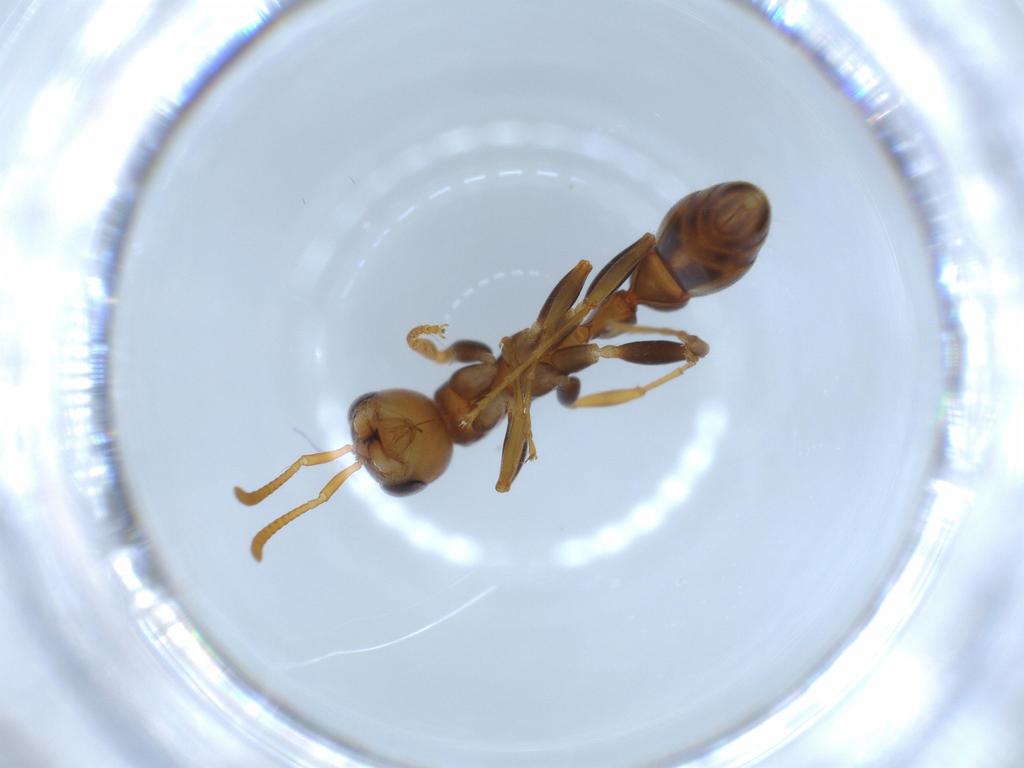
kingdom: Animalia
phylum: Arthropoda
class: Insecta
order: Hymenoptera
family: Formicidae
